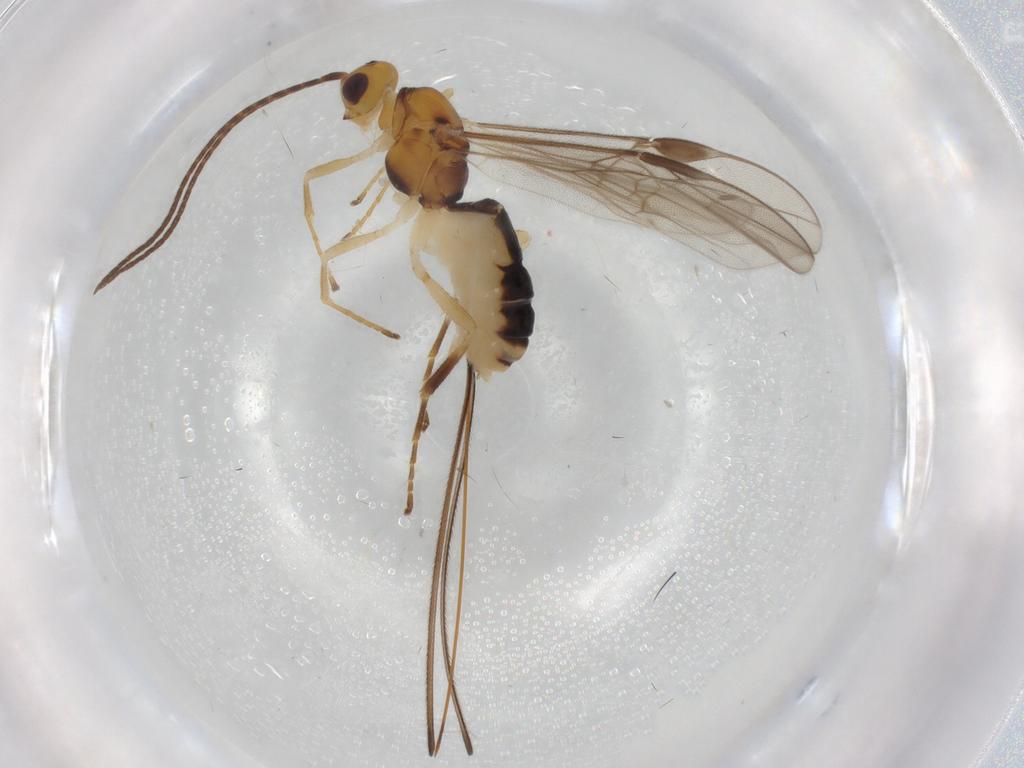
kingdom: Animalia
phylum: Arthropoda
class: Insecta
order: Hymenoptera
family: Braconidae
